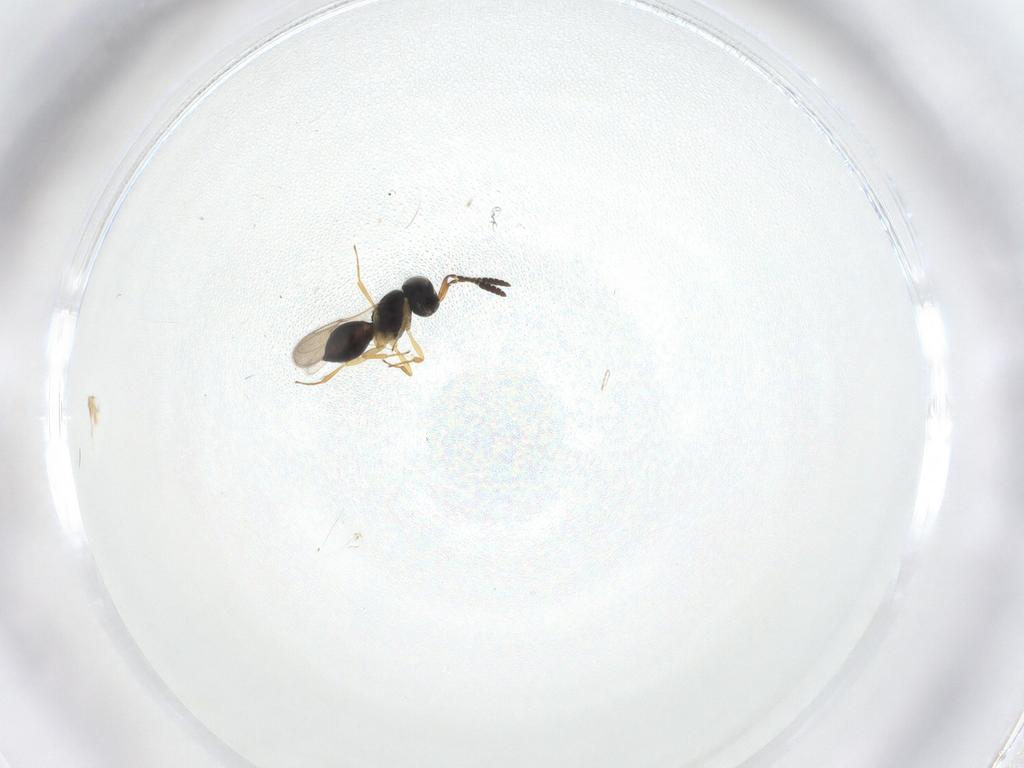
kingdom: Animalia
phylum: Arthropoda
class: Insecta
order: Hymenoptera
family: Scelionidae
